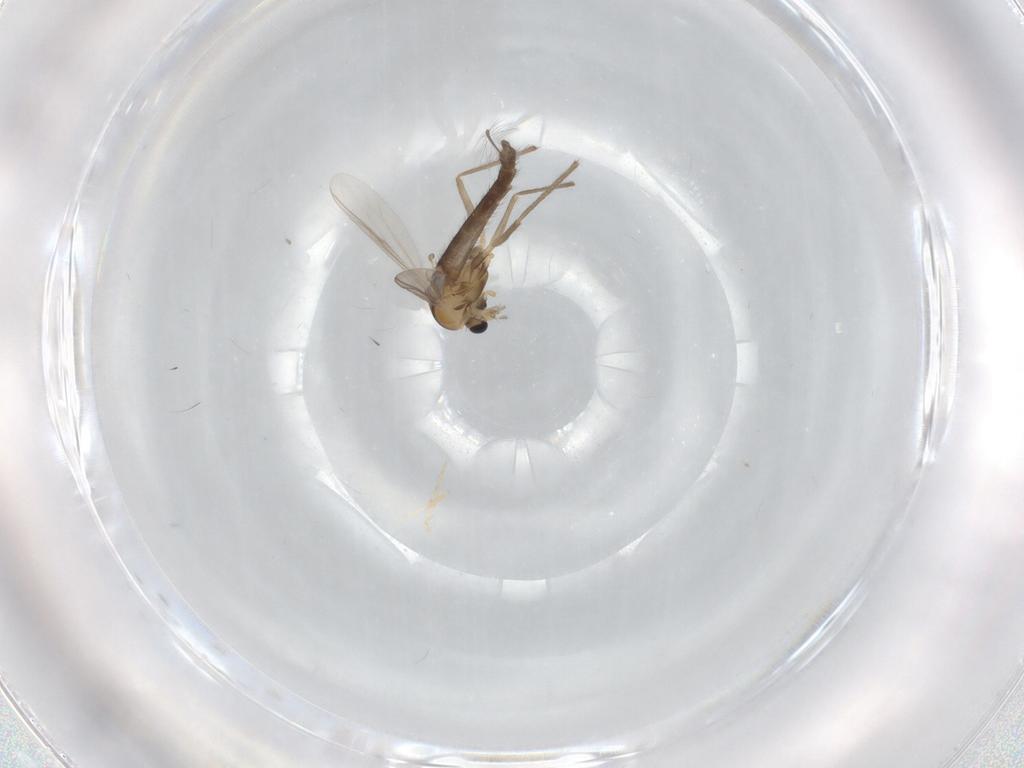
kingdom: Animalia
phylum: Arthropoda
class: Insecta
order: Diptera
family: Chironomidae
